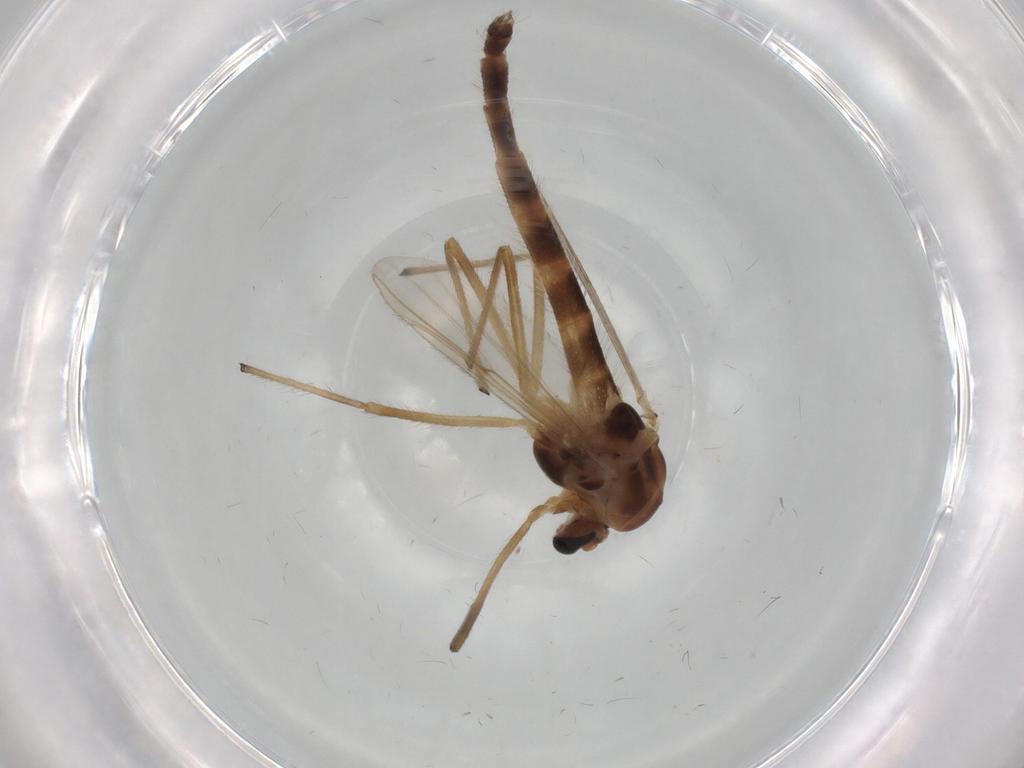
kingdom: Animalia
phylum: Arthropoda
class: Insecta
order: Diptera
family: Chironomidae
